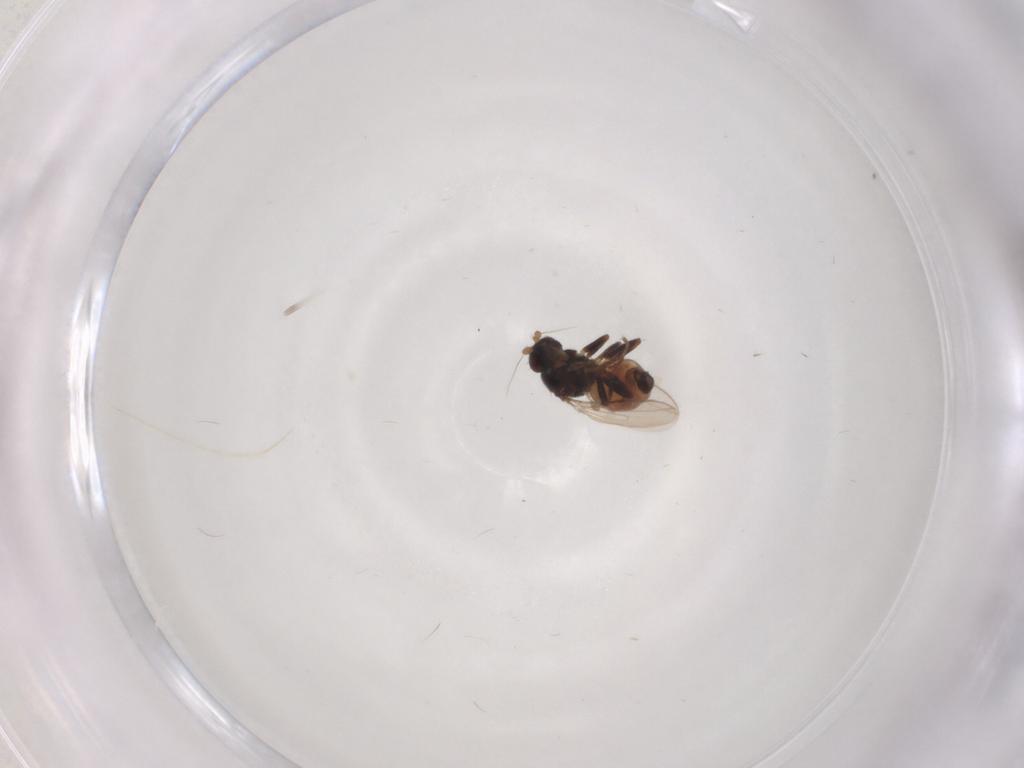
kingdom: Animalia
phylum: Arthropoda
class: Insecta
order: Diptera
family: Sphaeroceridae
